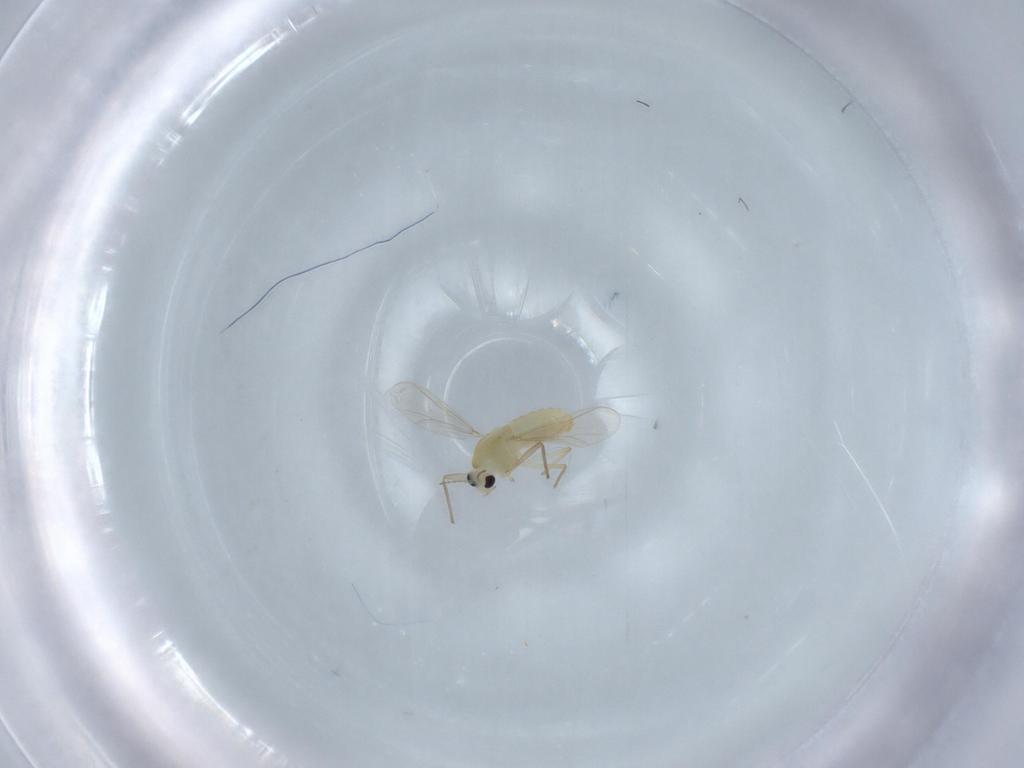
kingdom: Animalia
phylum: Arthropoda
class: Insecta
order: Diptera
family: Chironomidae
